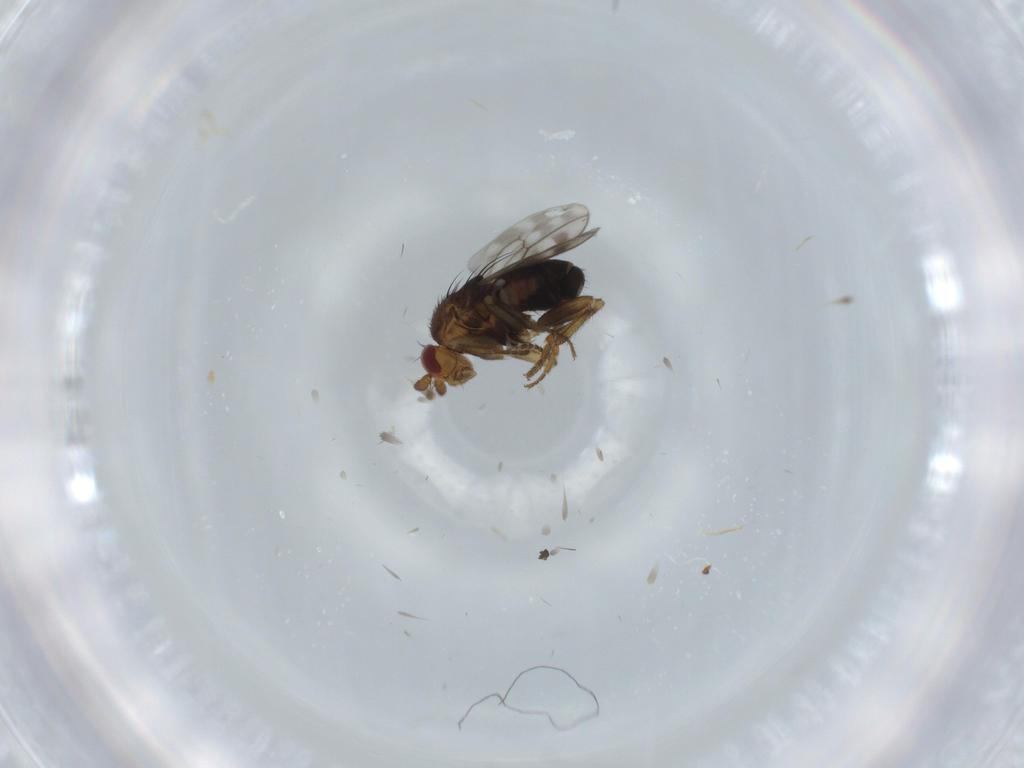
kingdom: Animalia
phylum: Arthropoda
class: Insecta
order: Diptera
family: Sphaeroceridae
